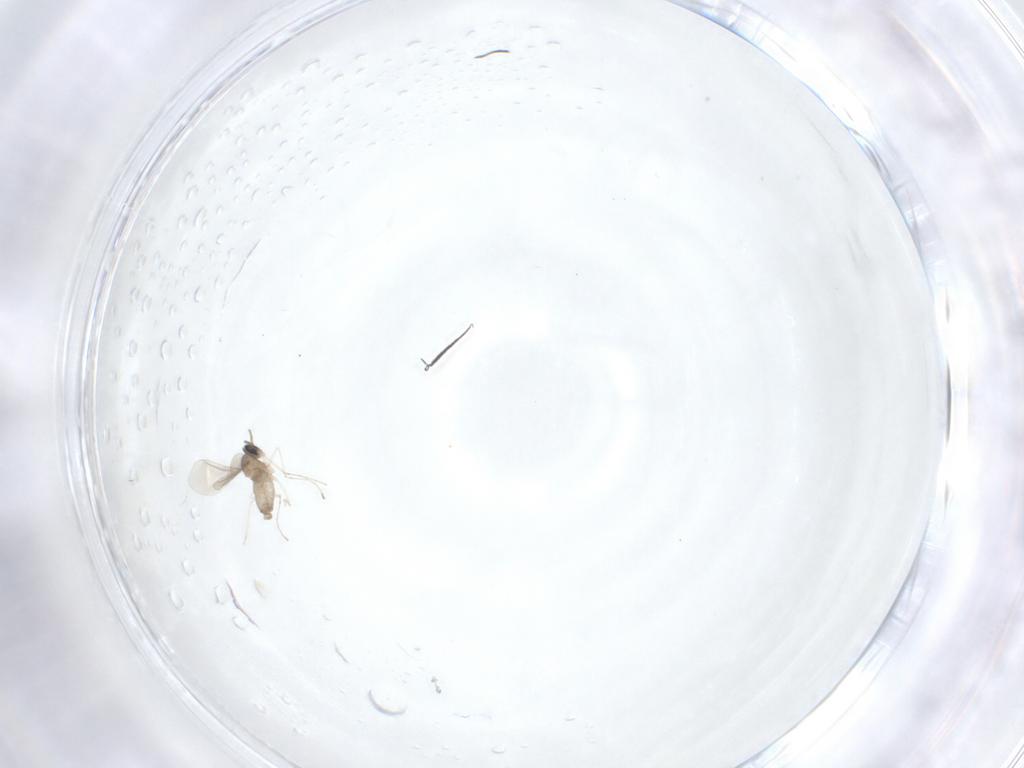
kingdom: Animalia
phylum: Arthropoda
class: Insecta
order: Diptera
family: Cecidomyiidae
